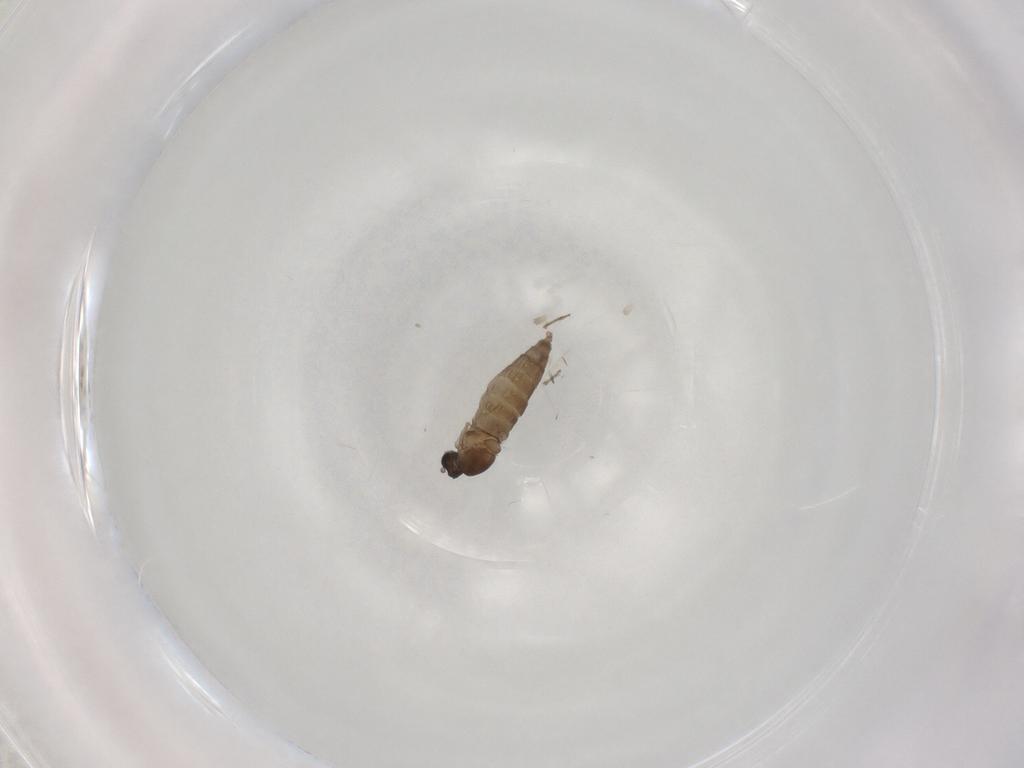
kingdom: Animalia
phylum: Arthropoda
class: Insecta
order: Diptera
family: Cecidomyiidae
